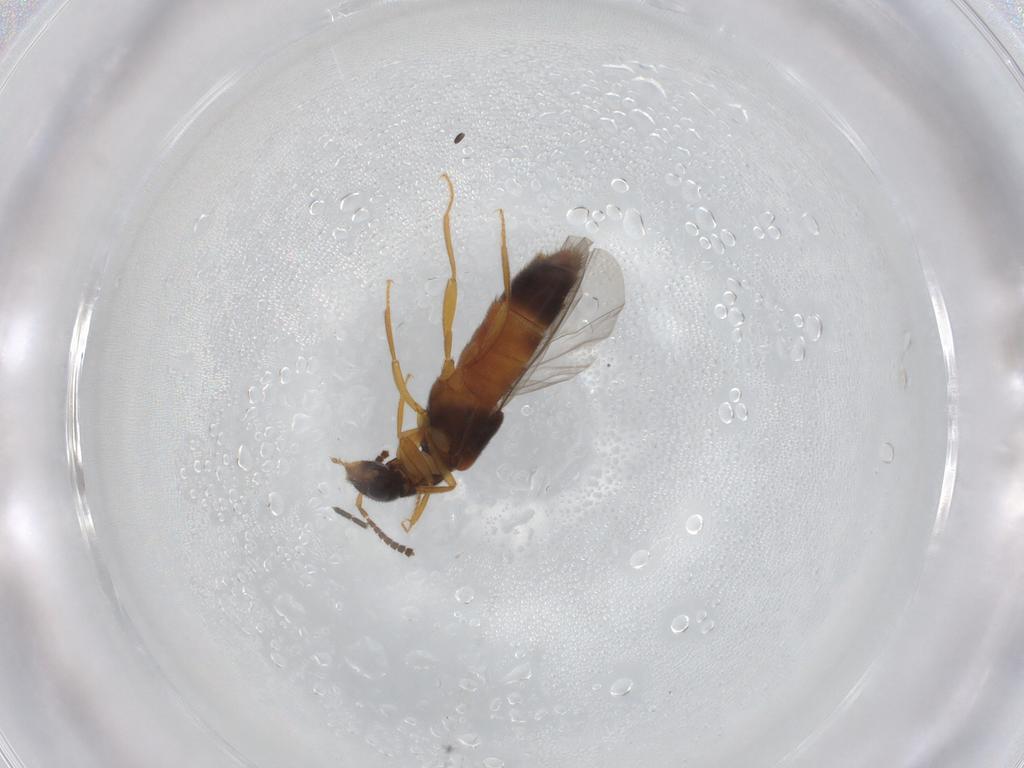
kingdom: Animalia
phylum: Arthropoda
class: Insecta
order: Coleoptera
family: Staphylinidae
